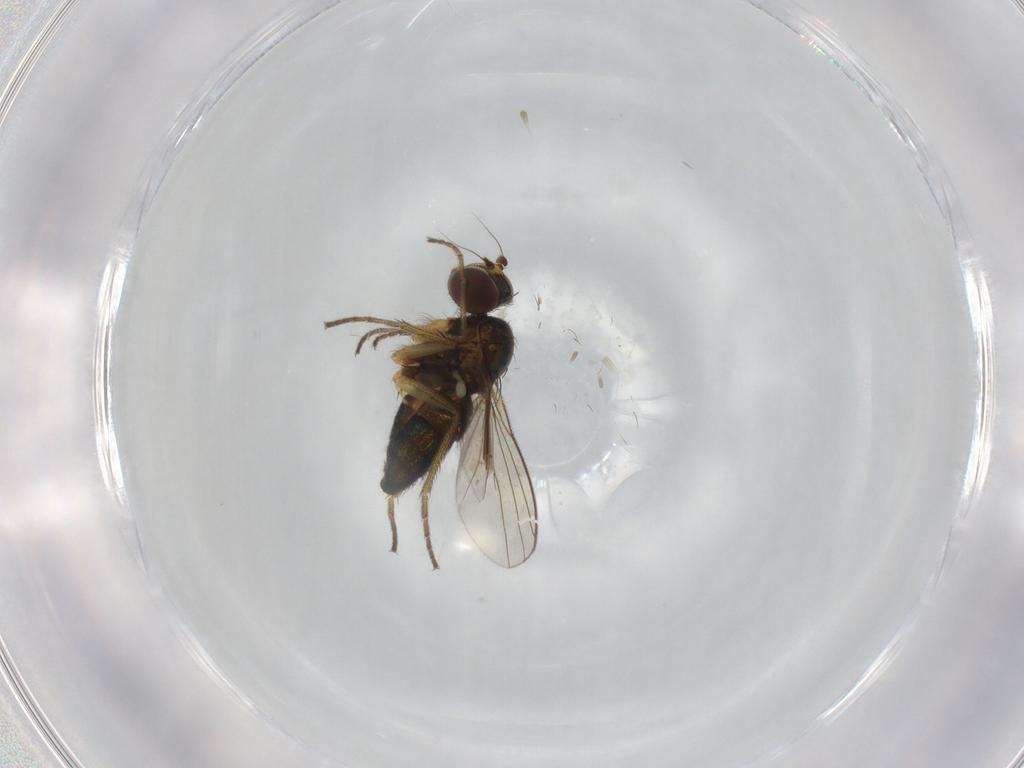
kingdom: Animalia
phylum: Arthropoda
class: Insecta
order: Diptera
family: Dolichopodidae
